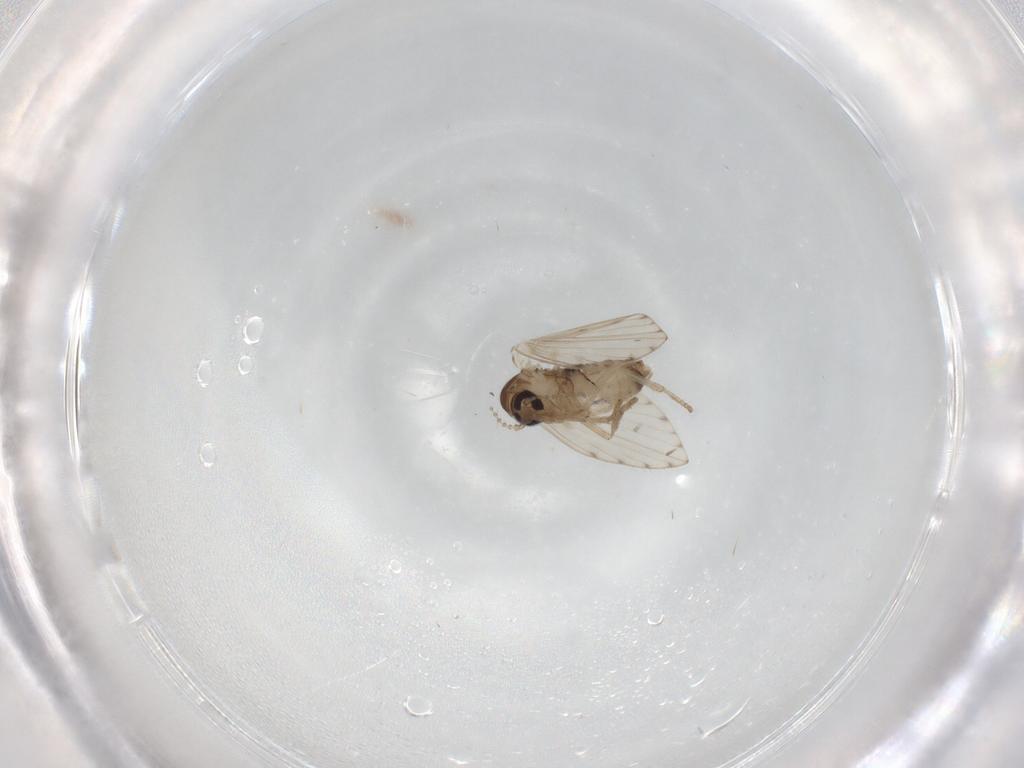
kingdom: Animalia
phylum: Arthropoda
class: Insecta
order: Diptera
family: Psychodidae
